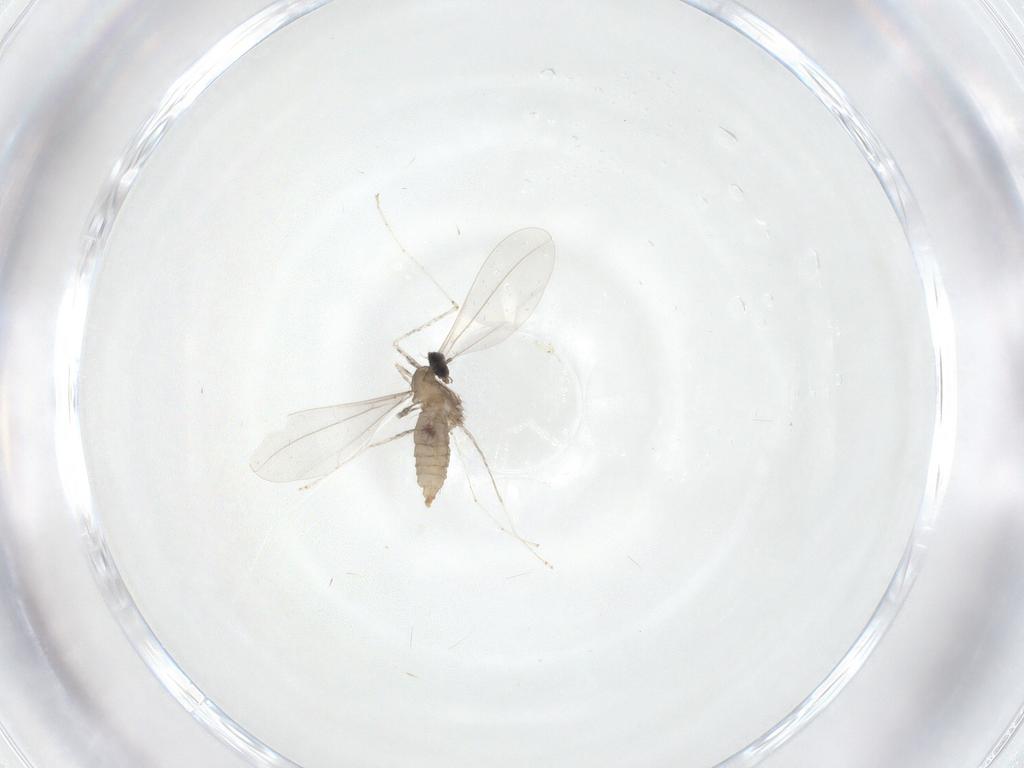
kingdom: Animalia
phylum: Arthropoda
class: Insecta
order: Diptera
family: Cecidomyiidae
